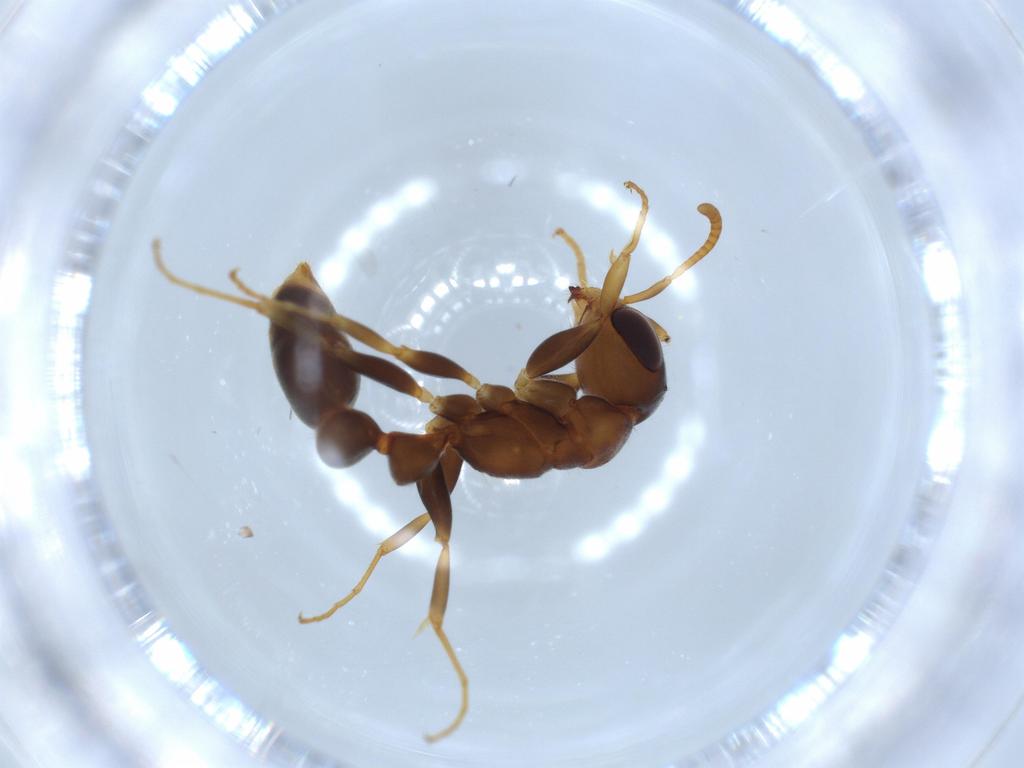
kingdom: Animalia
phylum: Arthropoda
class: Insecta
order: Hymenoptera
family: Formicidae
